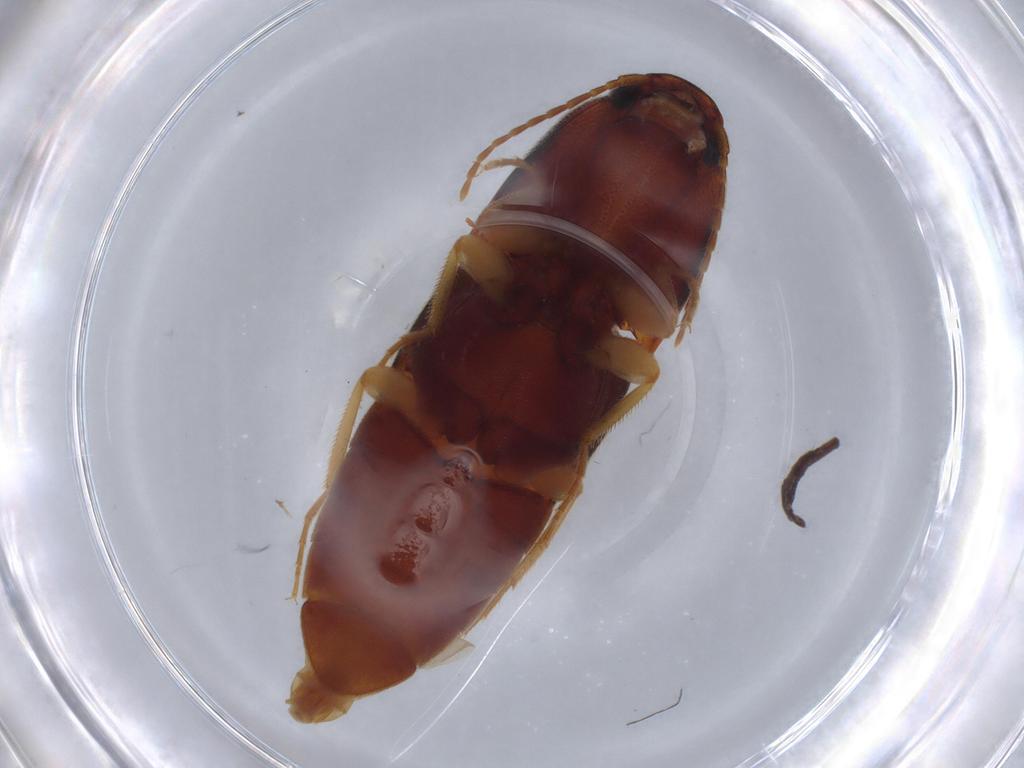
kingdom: Animalia
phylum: Arthropoda
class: Insecta
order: Coleoptera
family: Elateridae
